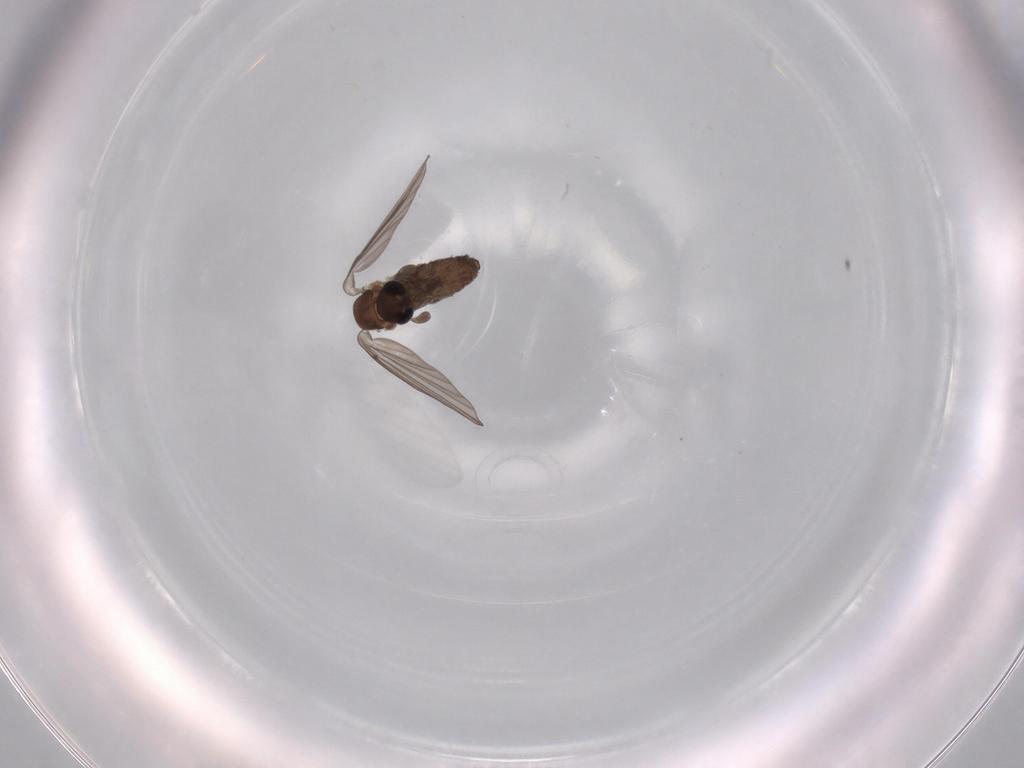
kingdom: Animalia
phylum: Arthropoda
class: Insecta
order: Diptera
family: Psychodidae
